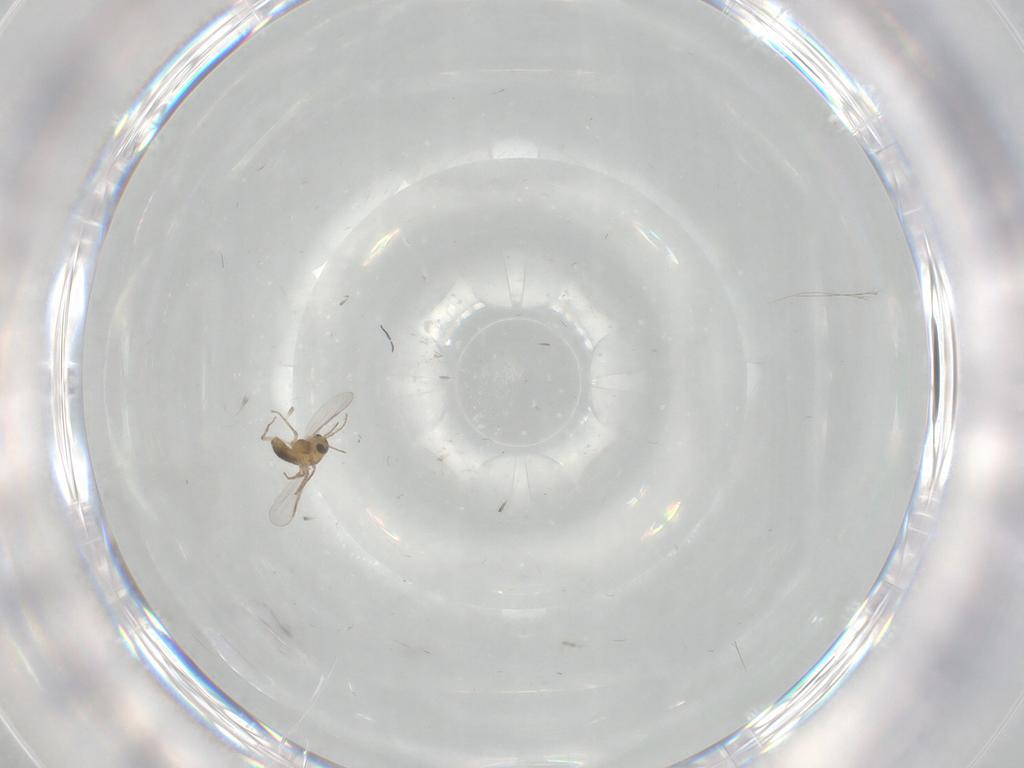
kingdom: Animalia
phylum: Arthropoda
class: Insecta
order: Diptera
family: Chironomidae
